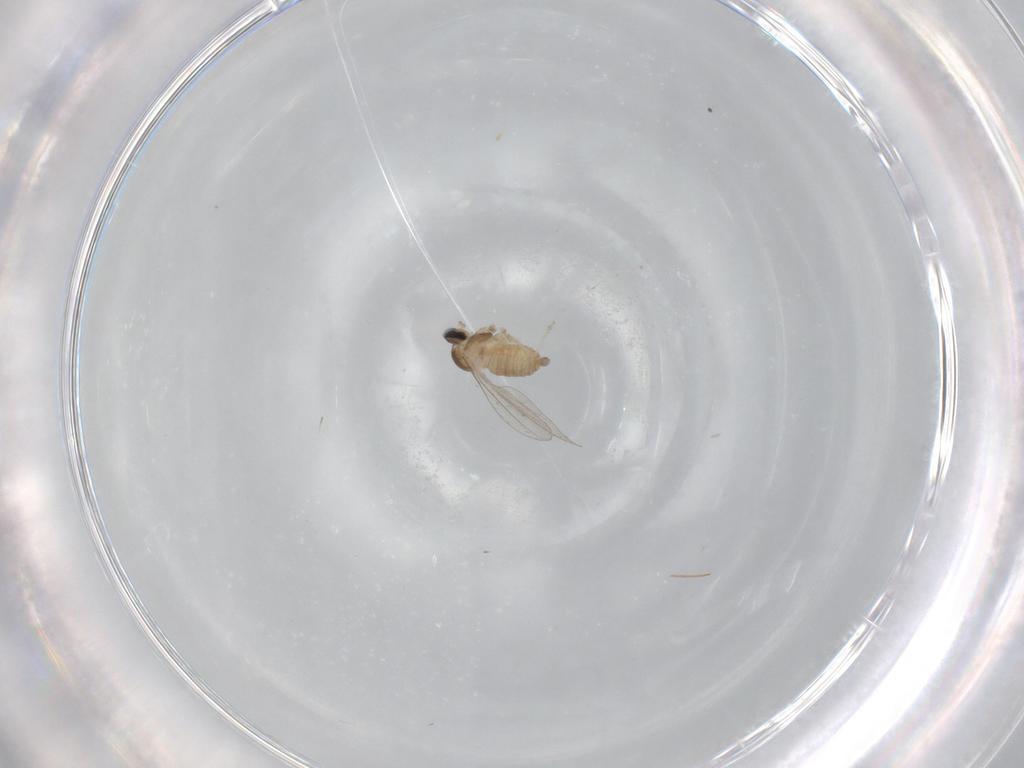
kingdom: Animalia
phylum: Arthropoda
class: Insecta
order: Diptera
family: Cecidomyiidae
